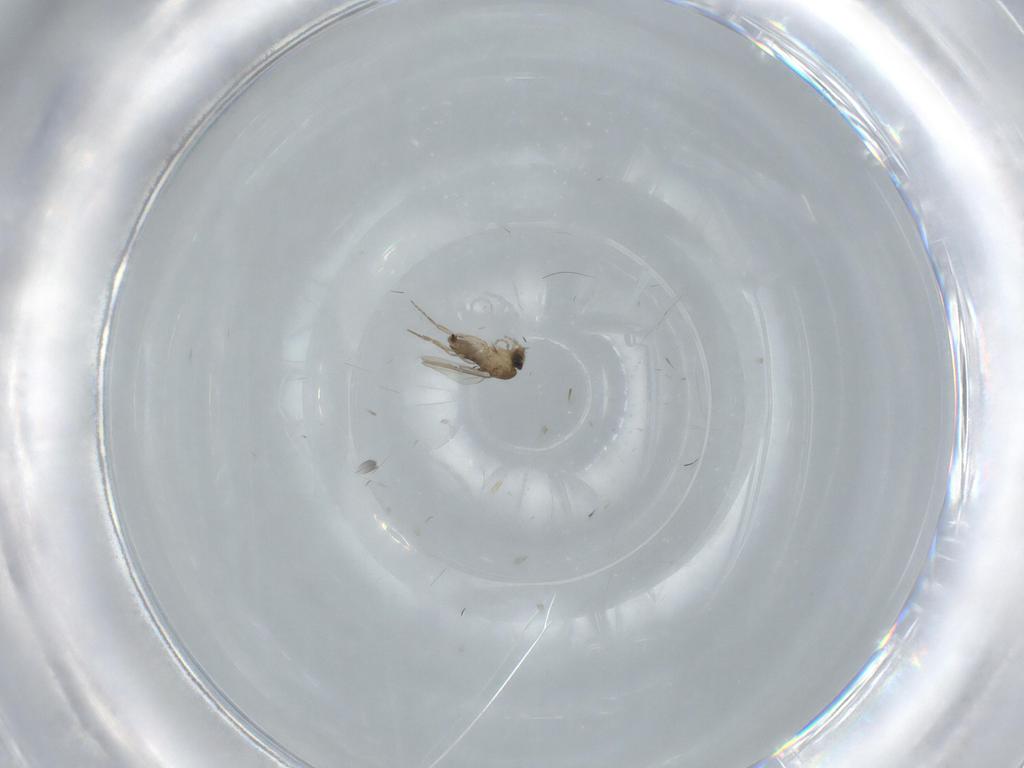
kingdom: Animalia
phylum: Arthropoda
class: Insecta
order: Diptera
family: Phoridae
